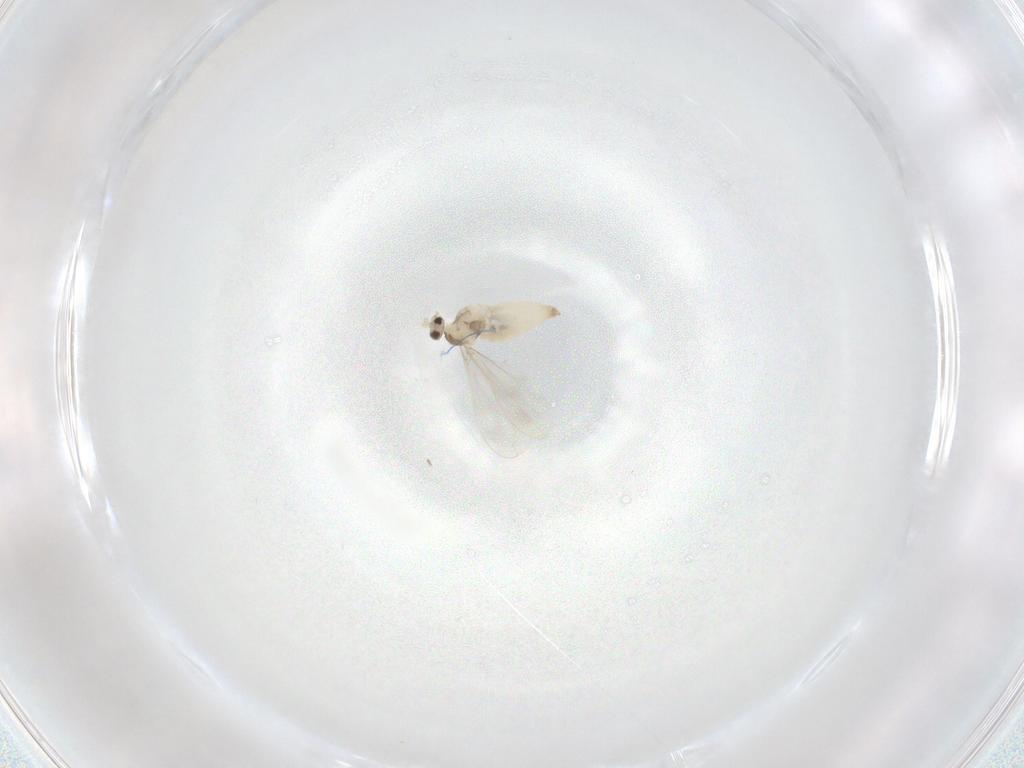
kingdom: Animalia
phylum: Arthropoda
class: Insecta
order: Diptera
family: Cecidomyiidae
